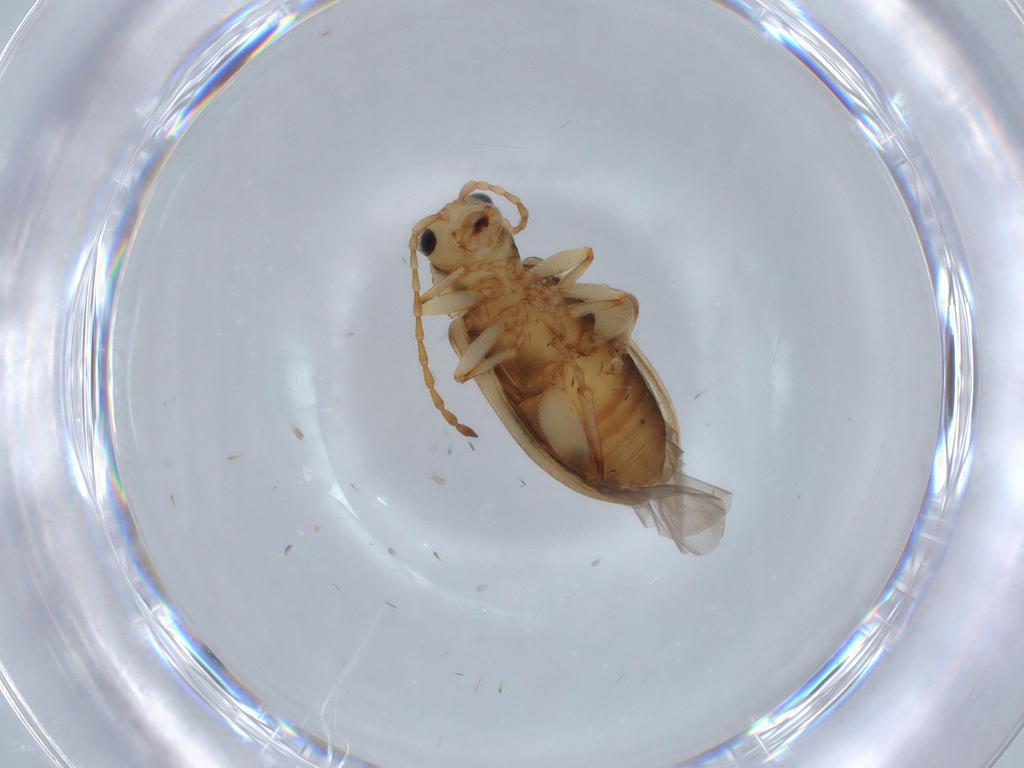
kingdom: Animalia
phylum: Arthropoda
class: Insecta
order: Coleoptera
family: Chrysomelidae
